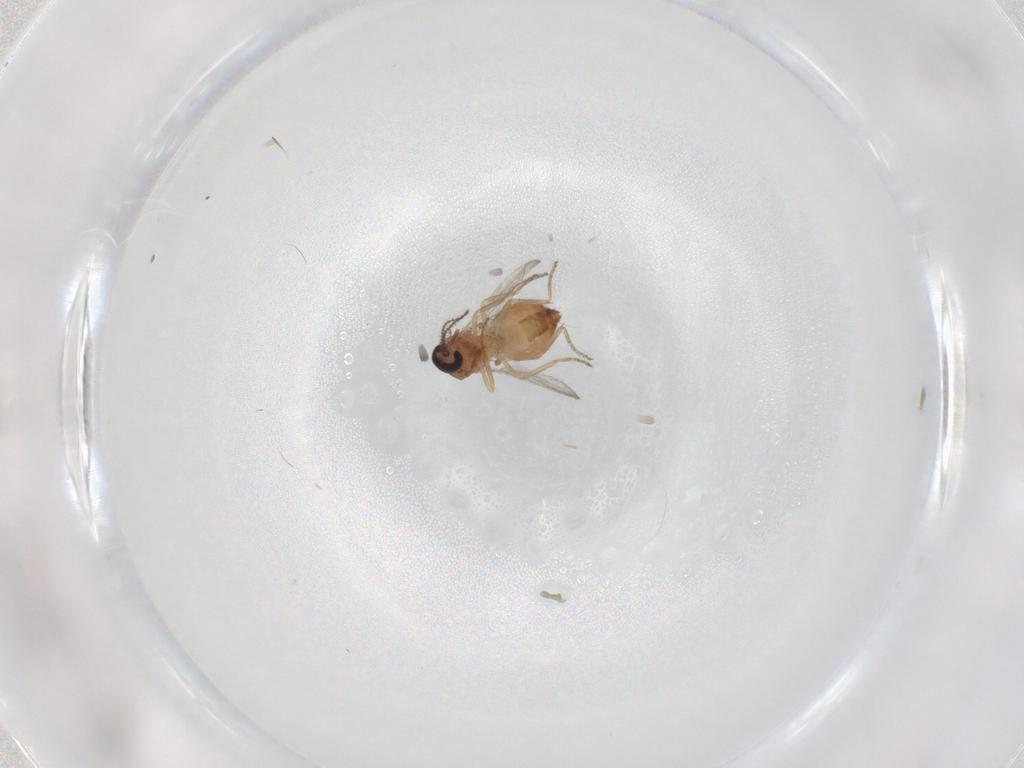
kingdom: Animalia
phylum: Arthropoda
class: Insecta
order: Diptera
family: Ceratopogonidae
